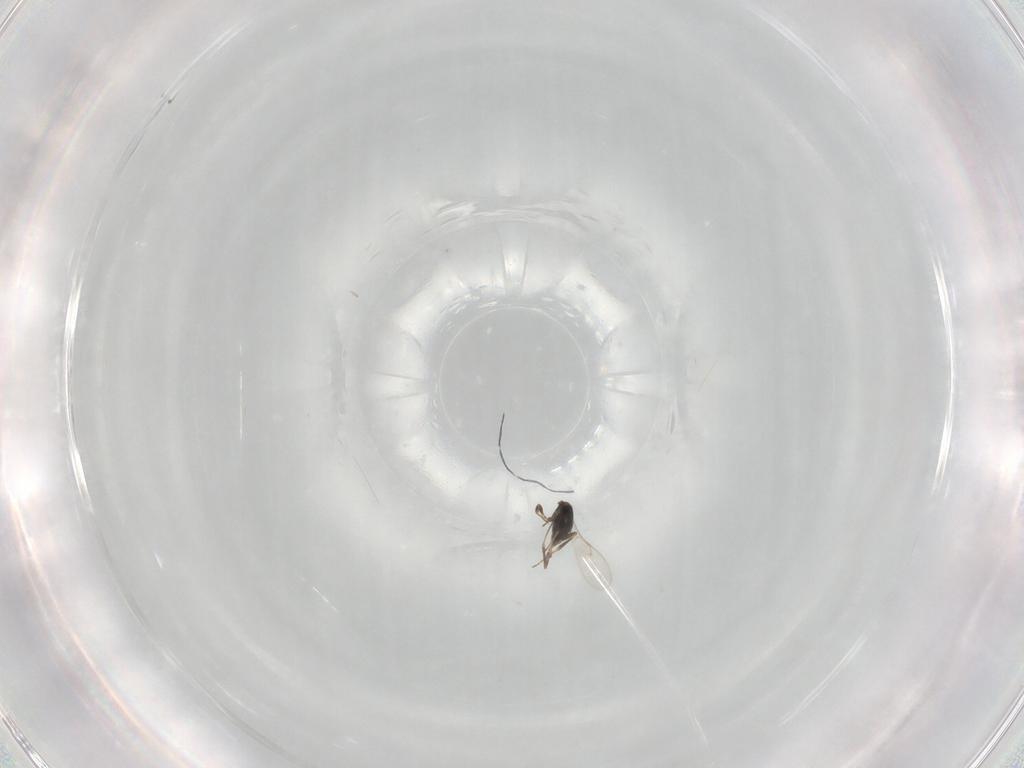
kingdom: Animalia
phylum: Arthropoda
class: Insecta
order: Hymenoptera
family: Scelionidae
